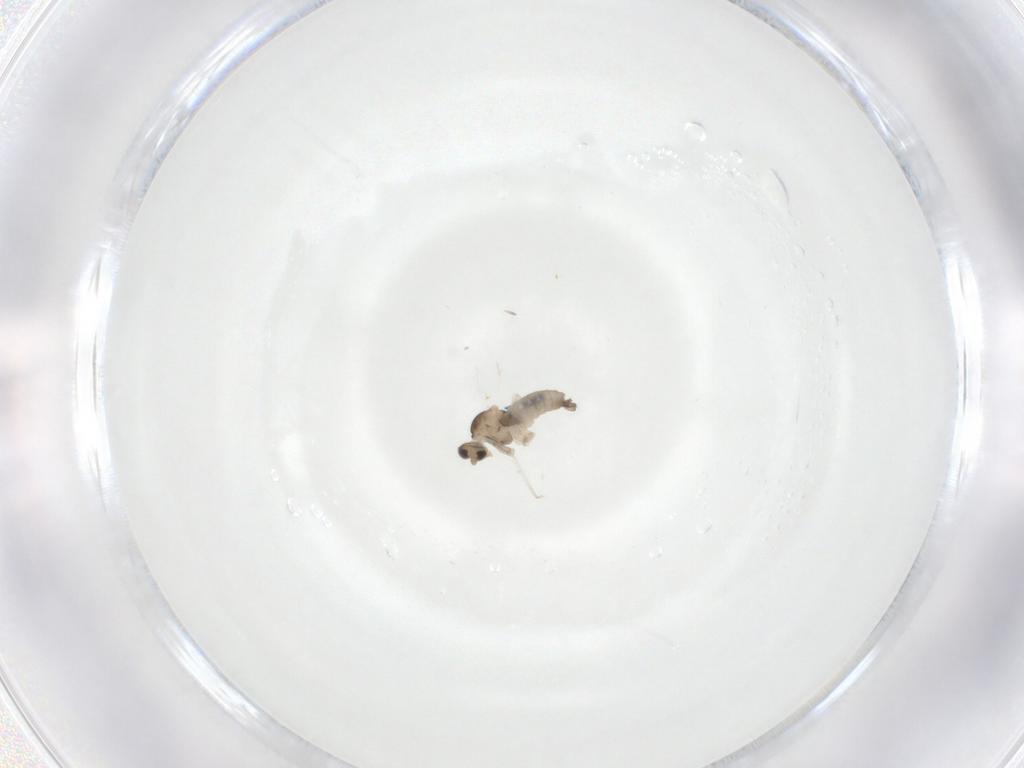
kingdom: Animalia
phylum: Arthropoda
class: Insecta
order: Diptera
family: Cecidomyiidae
